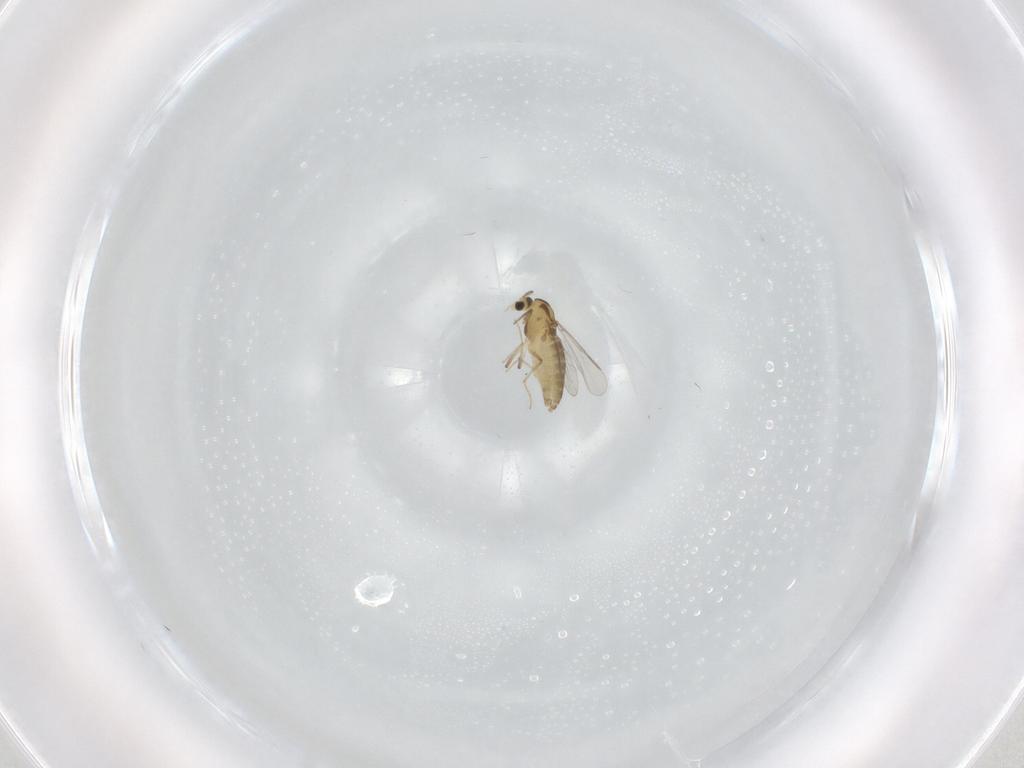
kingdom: Animalia
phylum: Arthropoda
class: Insecta
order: Diptera
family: Chironomidae
